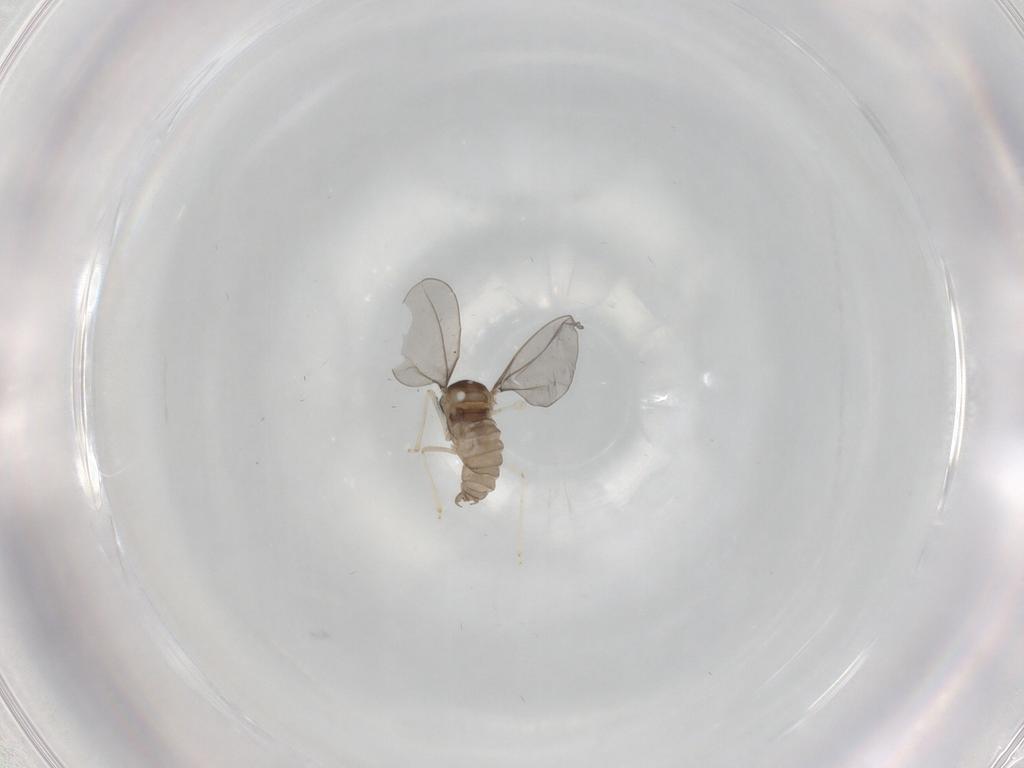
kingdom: Animalia
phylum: Arthropoda
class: Insecta
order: Diptera
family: Cecidomyiidae
